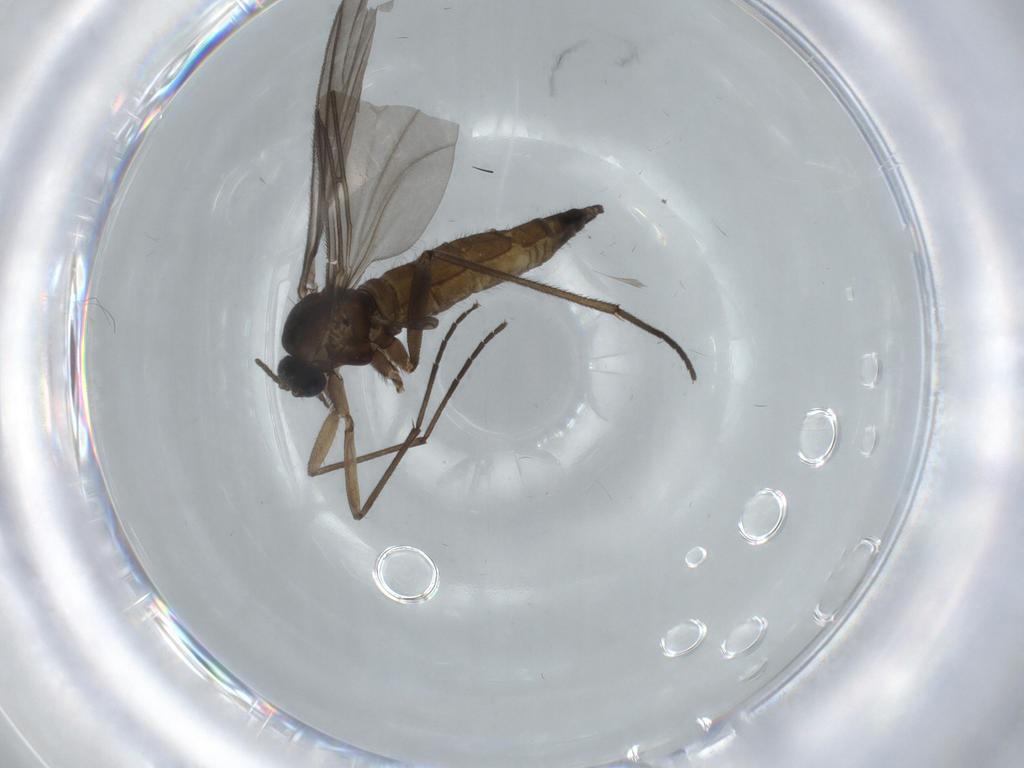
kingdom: Animalia
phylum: Arthropoda
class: Insecta
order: Diptera
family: Sciaridae
